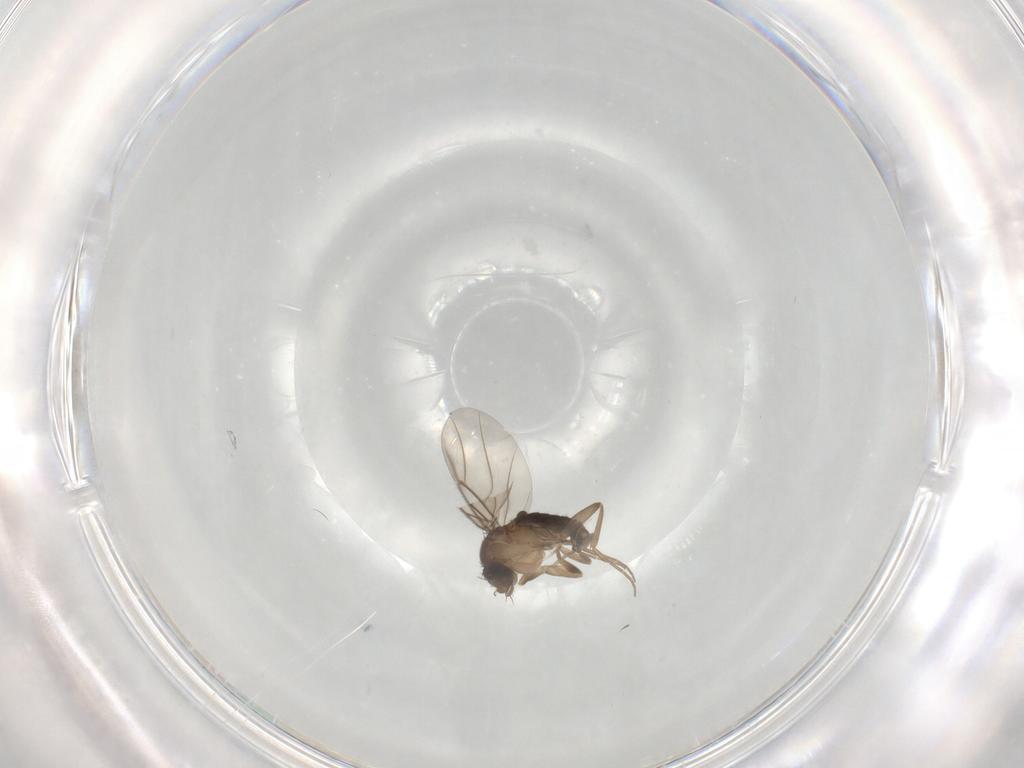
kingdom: Animalia
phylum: Arthropoda
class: Insecta
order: Diptera
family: Phoridae
